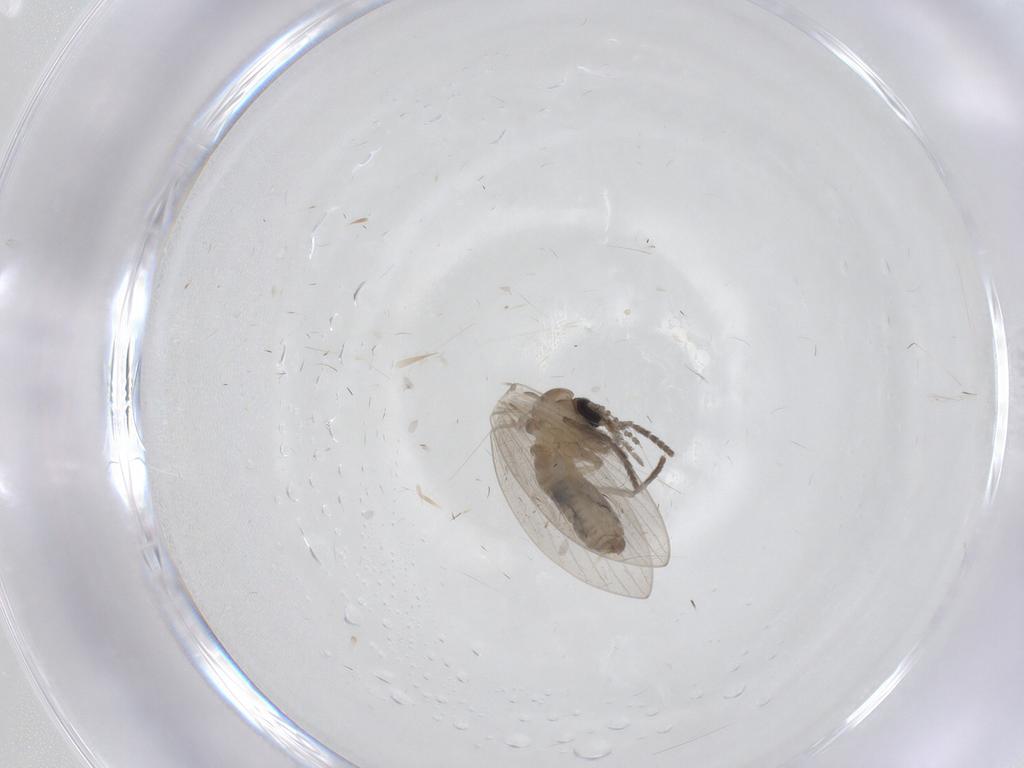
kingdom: Animalia
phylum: Arthropoda
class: Insecta
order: Diptera
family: Psychodidae
